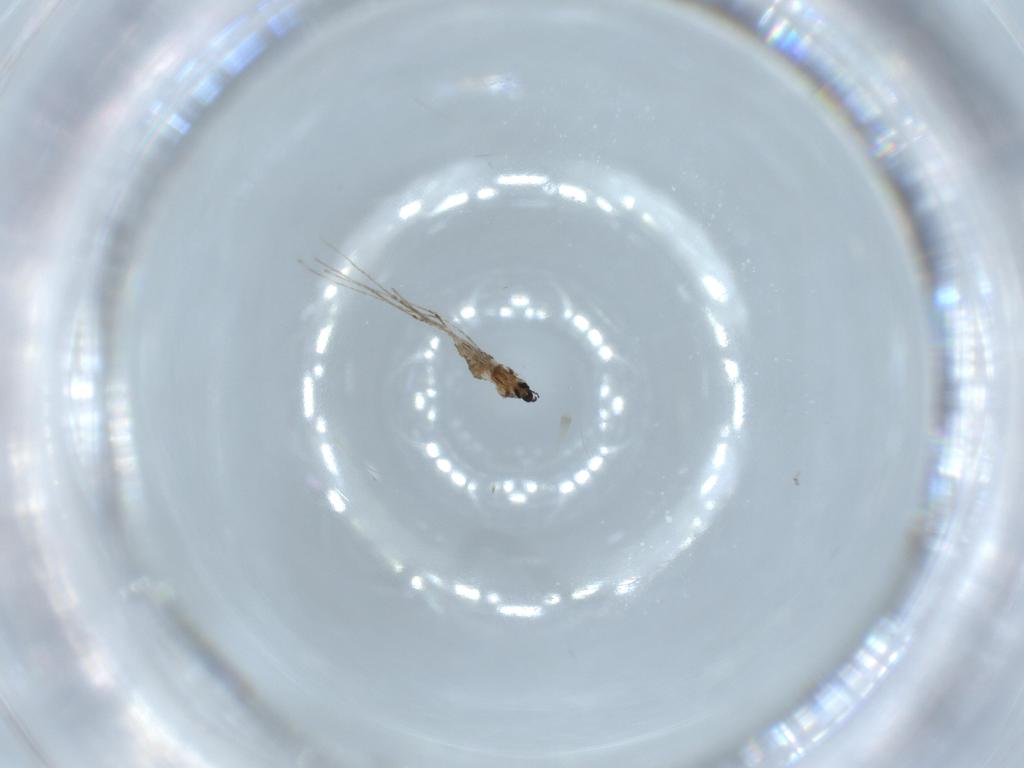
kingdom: Animalia
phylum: Arthropoda
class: Insecta
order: Diptera
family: Cecidomyiidae
